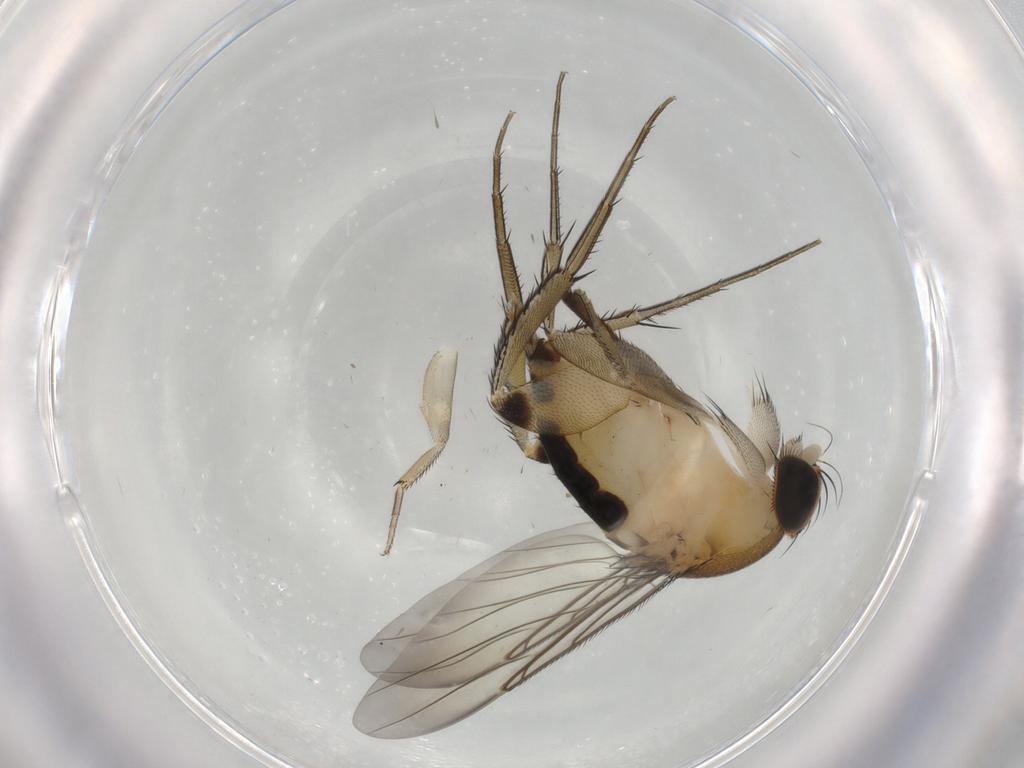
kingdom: Animalia
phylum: Arthropoda
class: Insecta
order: Diptera
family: Phoridae
